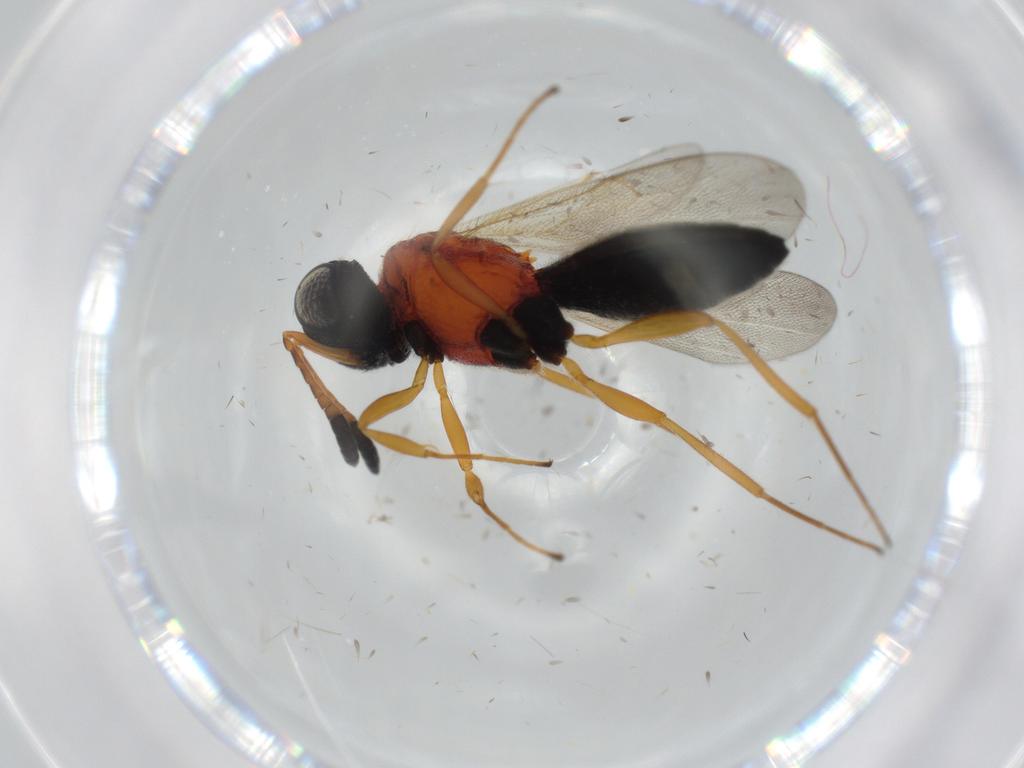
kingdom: Animalia
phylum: Arthropoda
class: Insecta
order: Hymenoptera
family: Scelionidae
